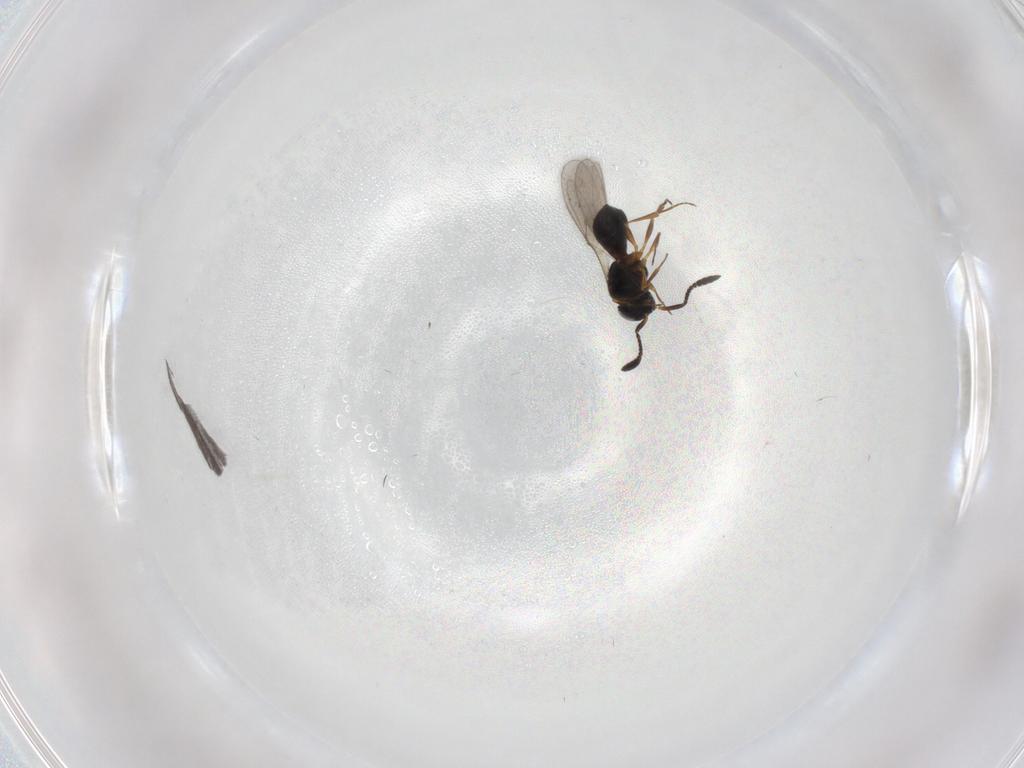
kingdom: Animalia
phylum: Arthropoda
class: Insecta
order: Hymenoptera
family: Scelionidae
